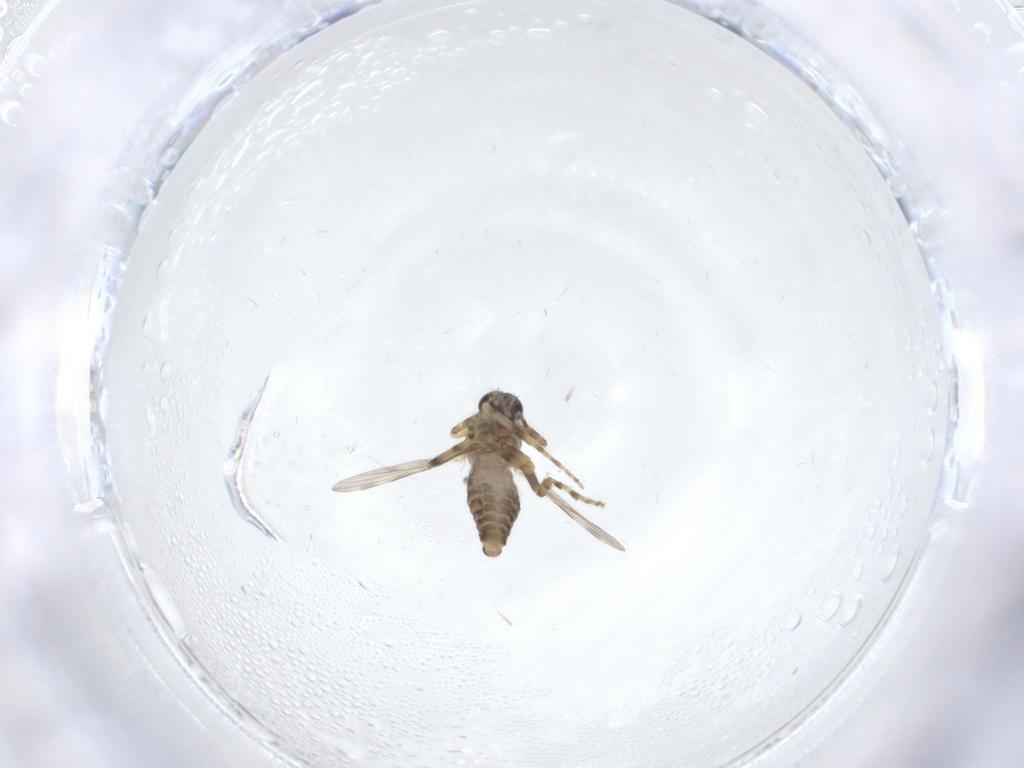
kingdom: Animalia
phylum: Arthropoda
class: Insecta
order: Diptera
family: Ceratopogonidae
